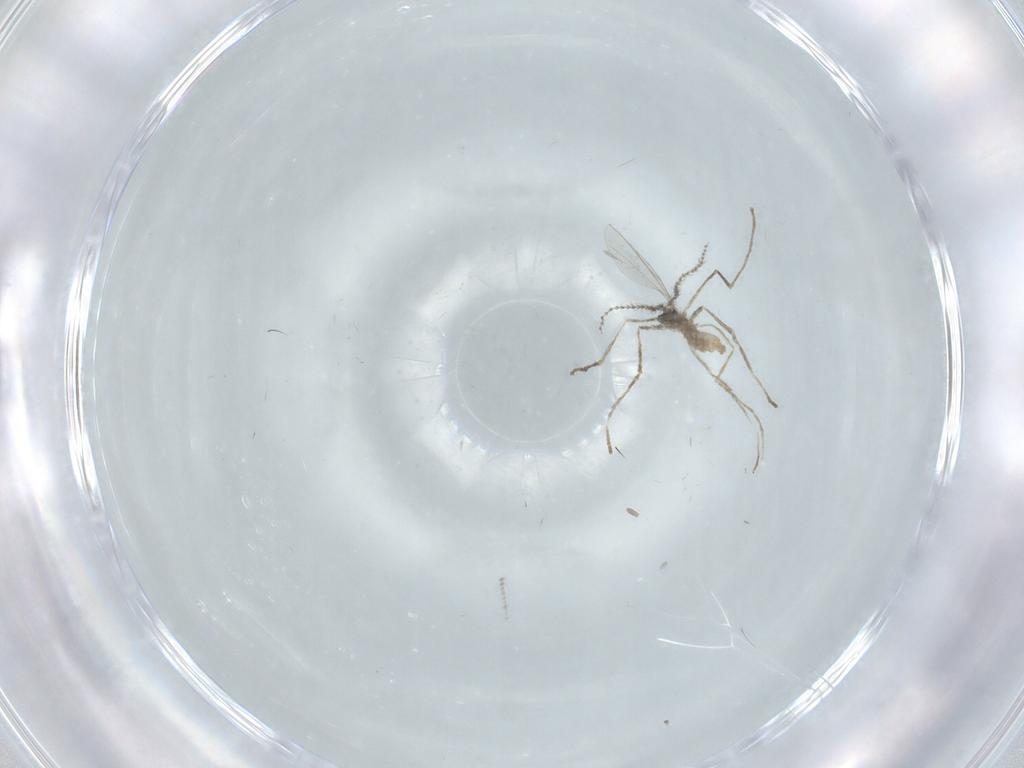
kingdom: Animalia
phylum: Arthropoda
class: Insecta
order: Diptera
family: Cecidomyiidae
